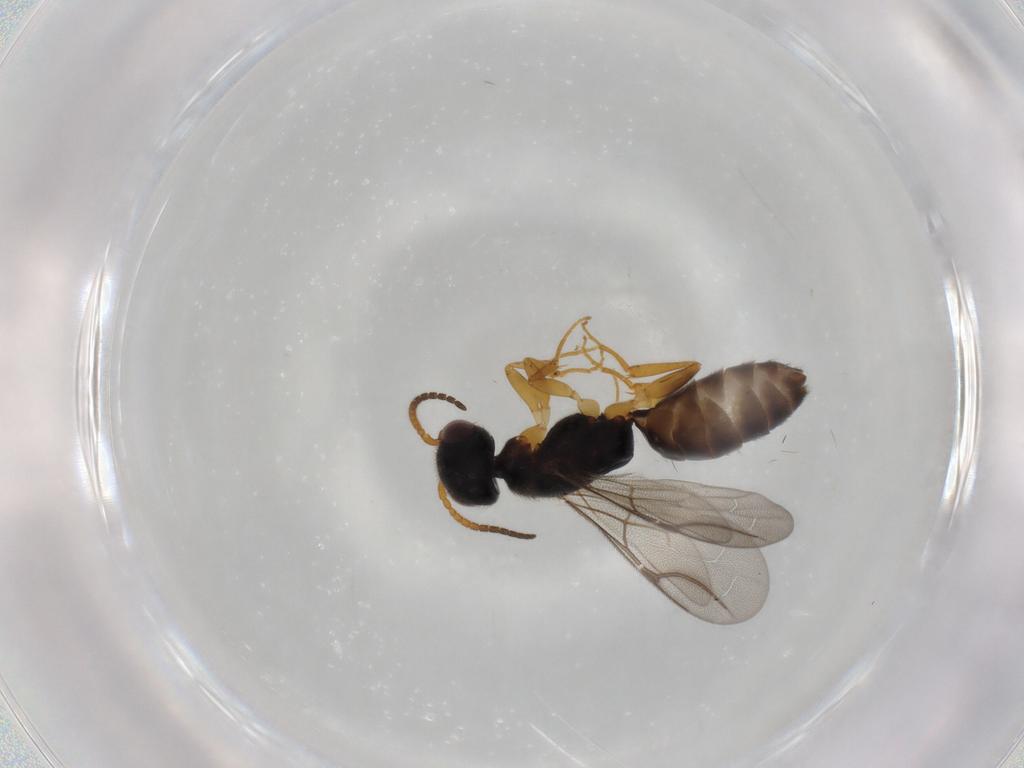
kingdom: Animalia
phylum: Arthropoda
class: Insecta
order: Hymenoptera
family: Bethylidae
